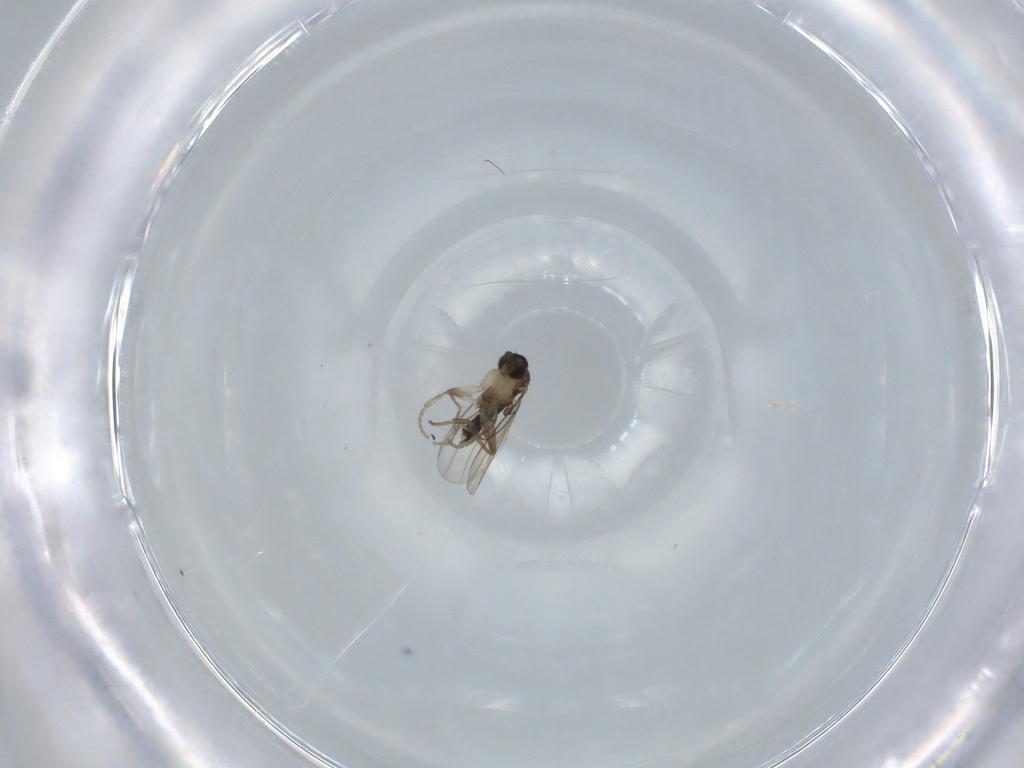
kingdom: Animalia
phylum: Arthropoda
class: Insecta
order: Diptera
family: Phoridae
